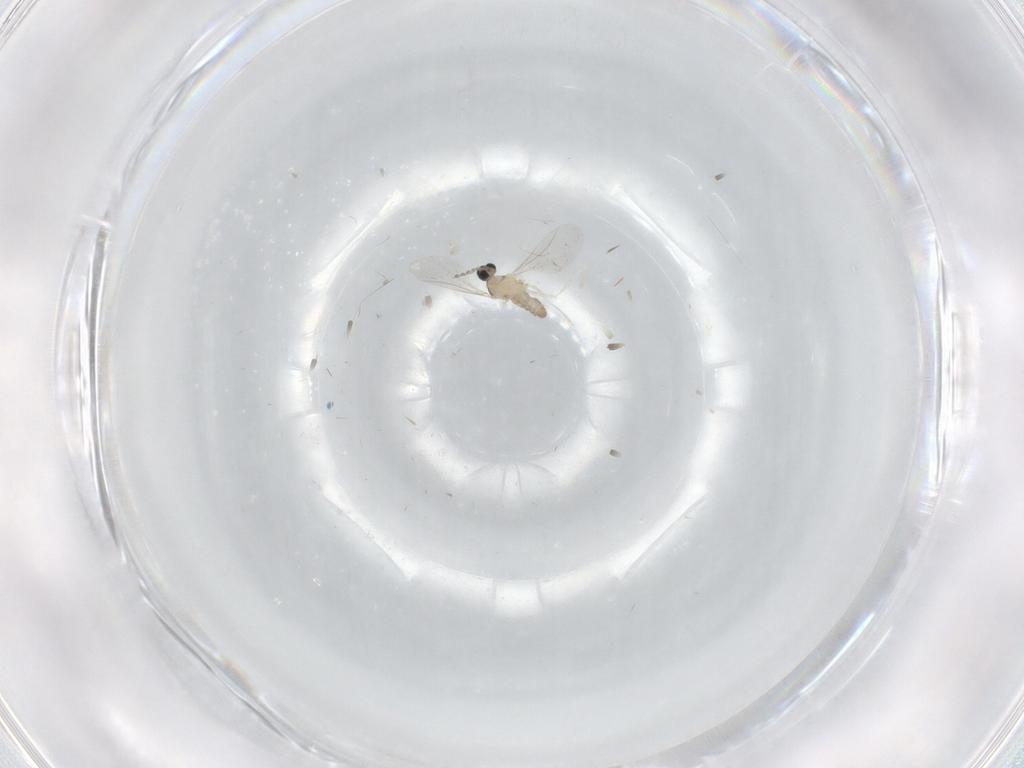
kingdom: Animalia
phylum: Arthropoda
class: Insecta
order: Diptera
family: Cecidomyiidae
